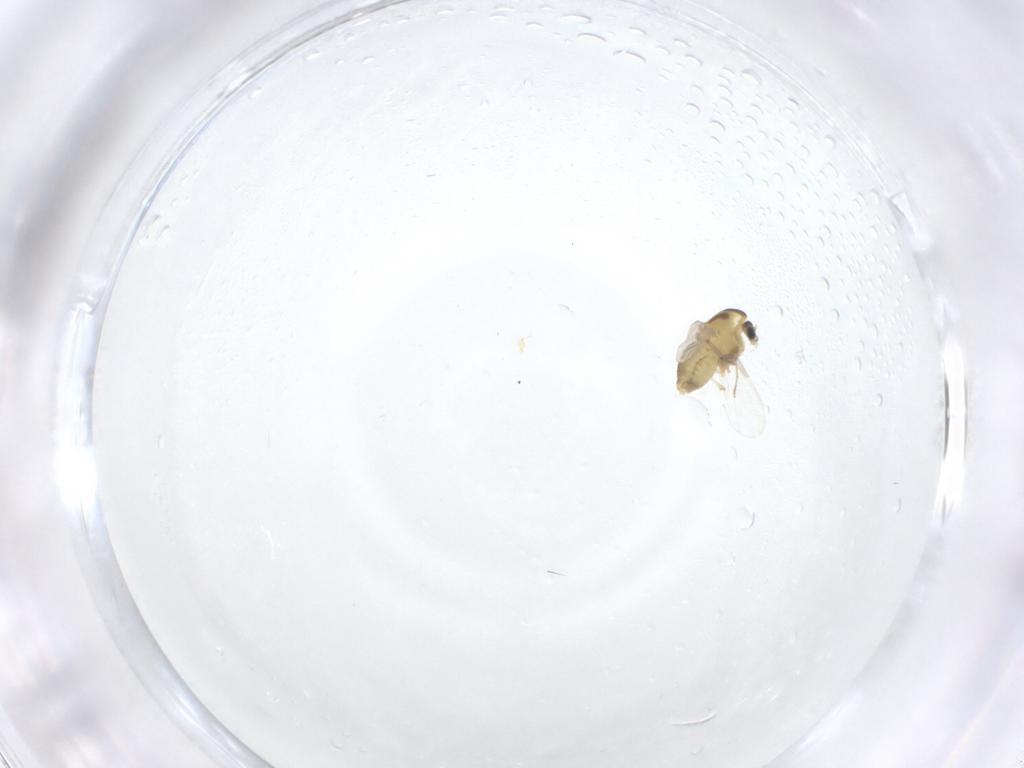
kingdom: Animalia
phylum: Arthropoda
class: Insecta
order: Diptera
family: Chironomidae
